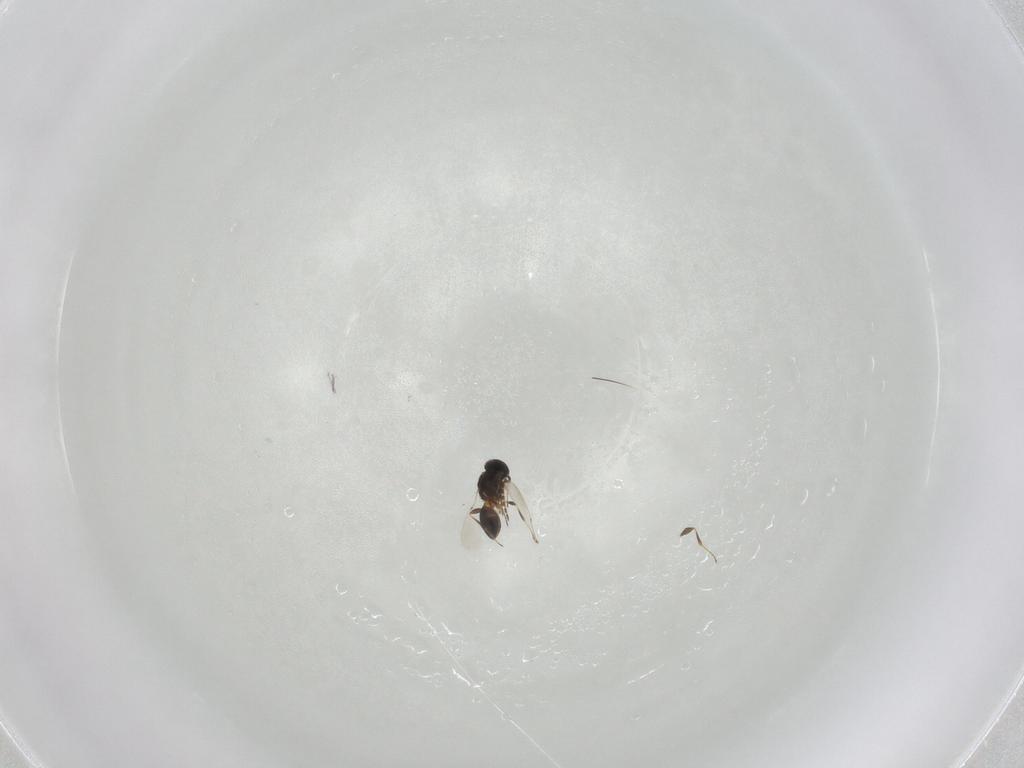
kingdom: Animalia
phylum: Arthropoda
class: Insecta
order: Hymenoptera
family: Platygastridae
